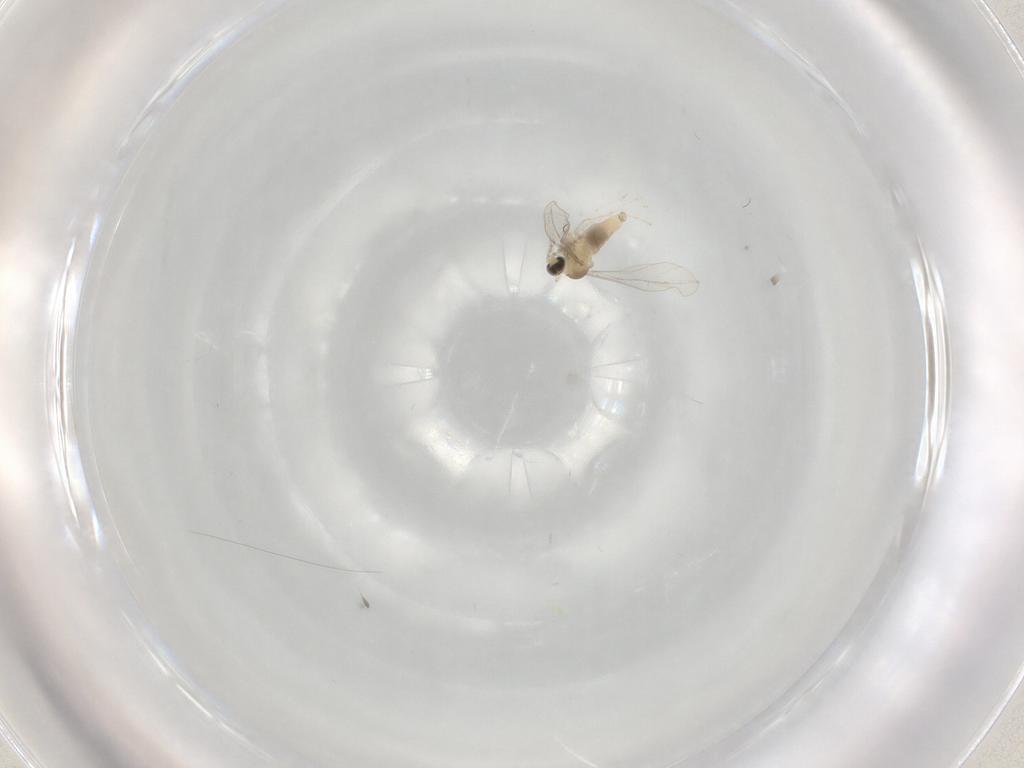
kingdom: Animalia
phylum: Arthropoda
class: Insecta
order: Diptera
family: Cecidomyiidae
